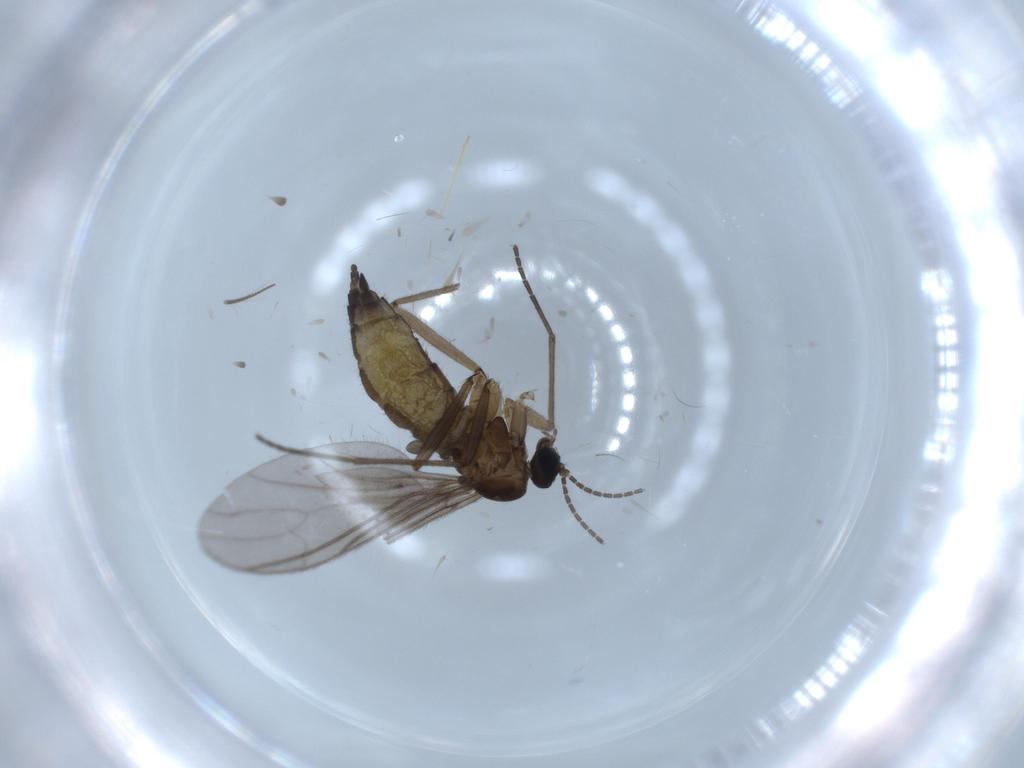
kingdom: Animalia
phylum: Arthropoda
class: Insecta
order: Diptera
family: Sciaridae
